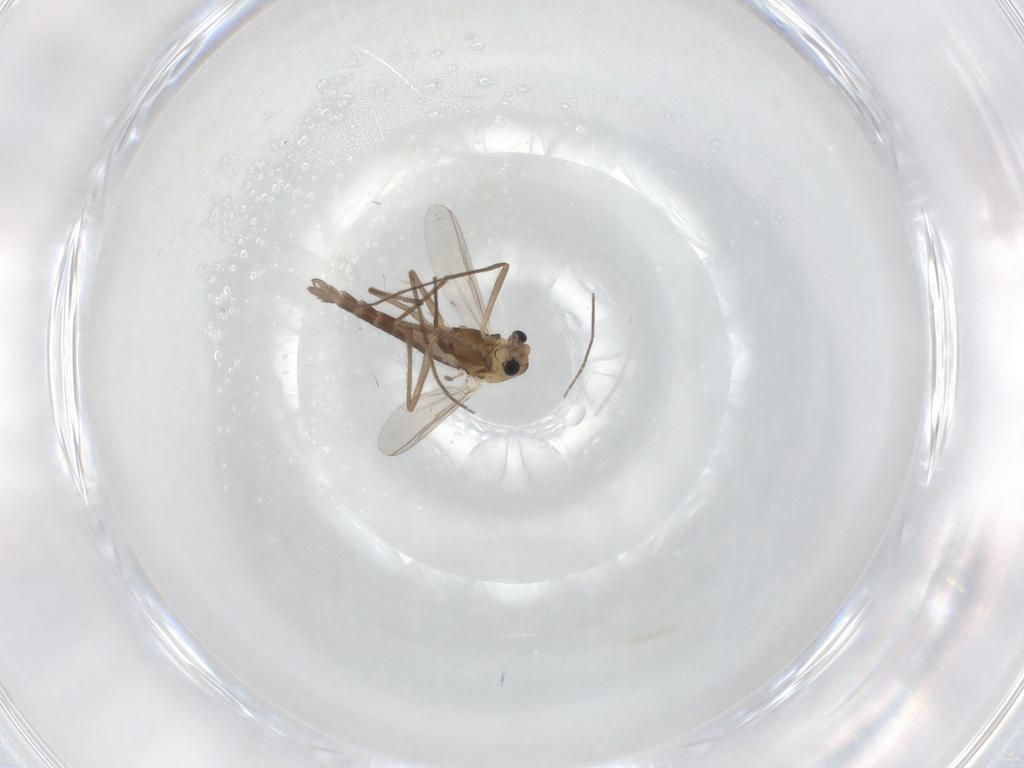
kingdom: Animalia
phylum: Arthropoda
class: Insecta
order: Diptera
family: Chironomidae
